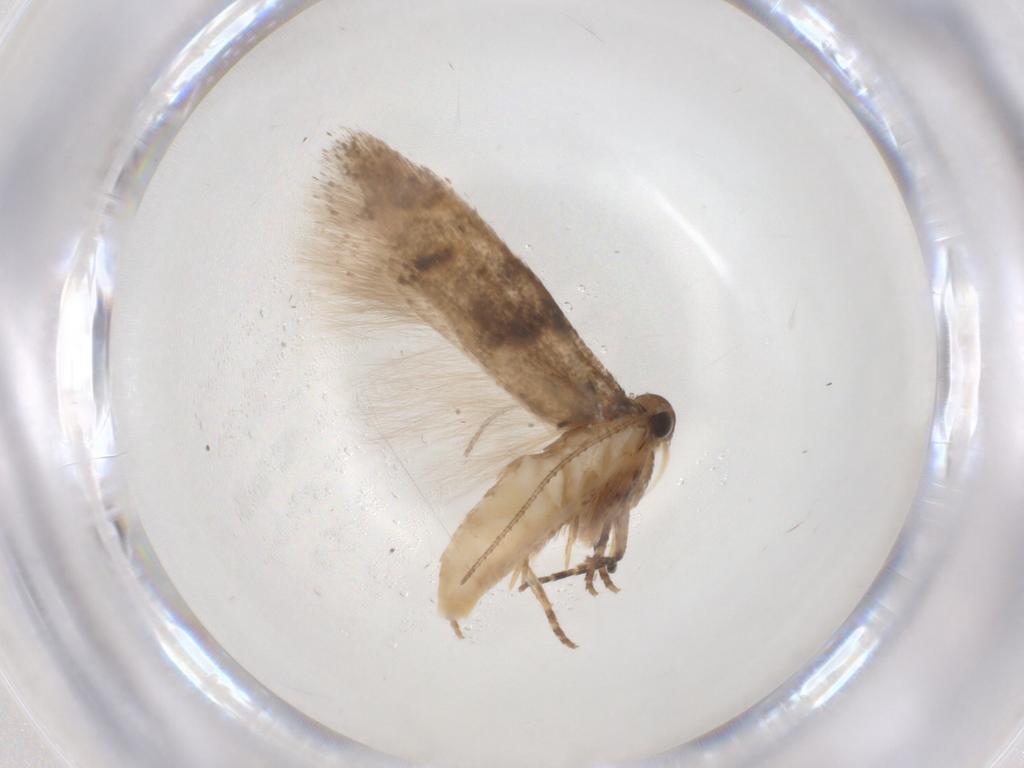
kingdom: Animalia
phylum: Arthropoda
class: Insecta
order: Lepidoptera
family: Gelechiidae
